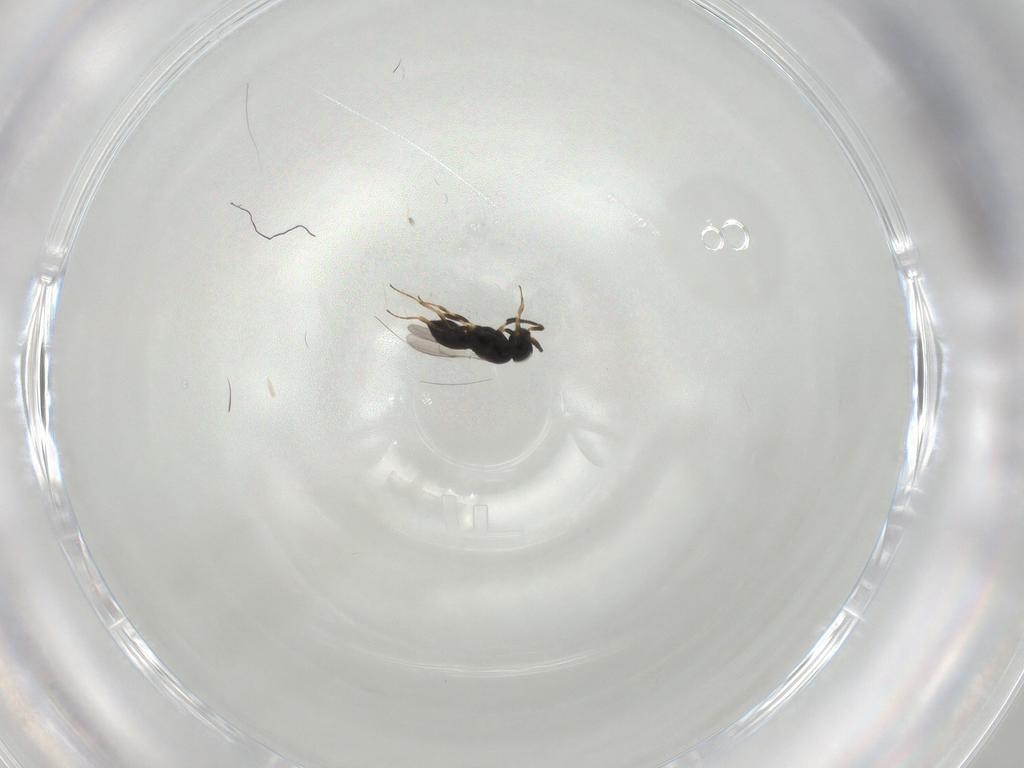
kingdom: Animalia
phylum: Arthropoda
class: Insecta
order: Hymenoptera
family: Scelionidae
